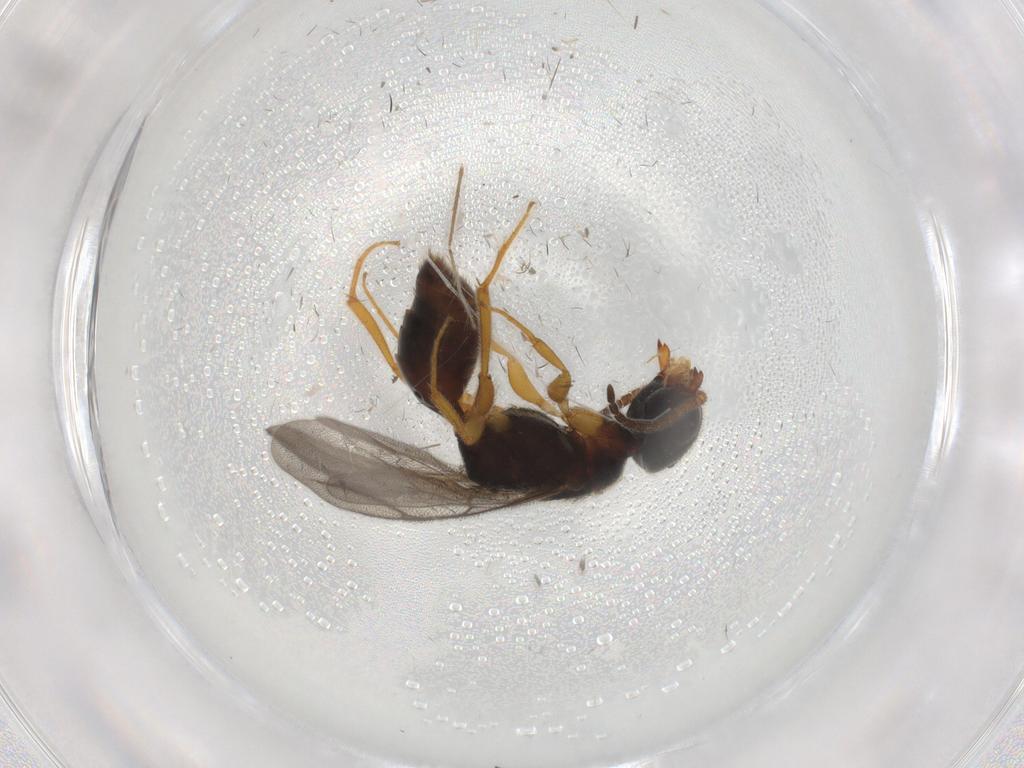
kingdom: Animalia
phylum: Arthropoda
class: Insecta
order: Hymenoptera
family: Bethylidae
